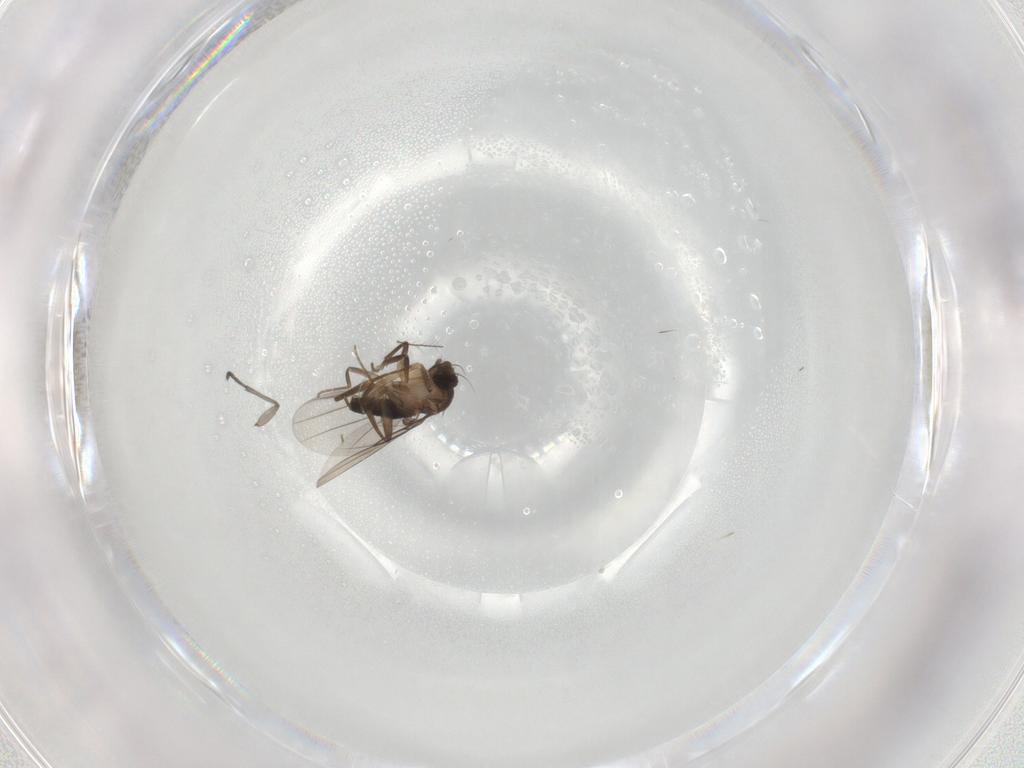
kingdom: Animalia
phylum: Arthropoda
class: Insecta
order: Diptera
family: Sciaridae
